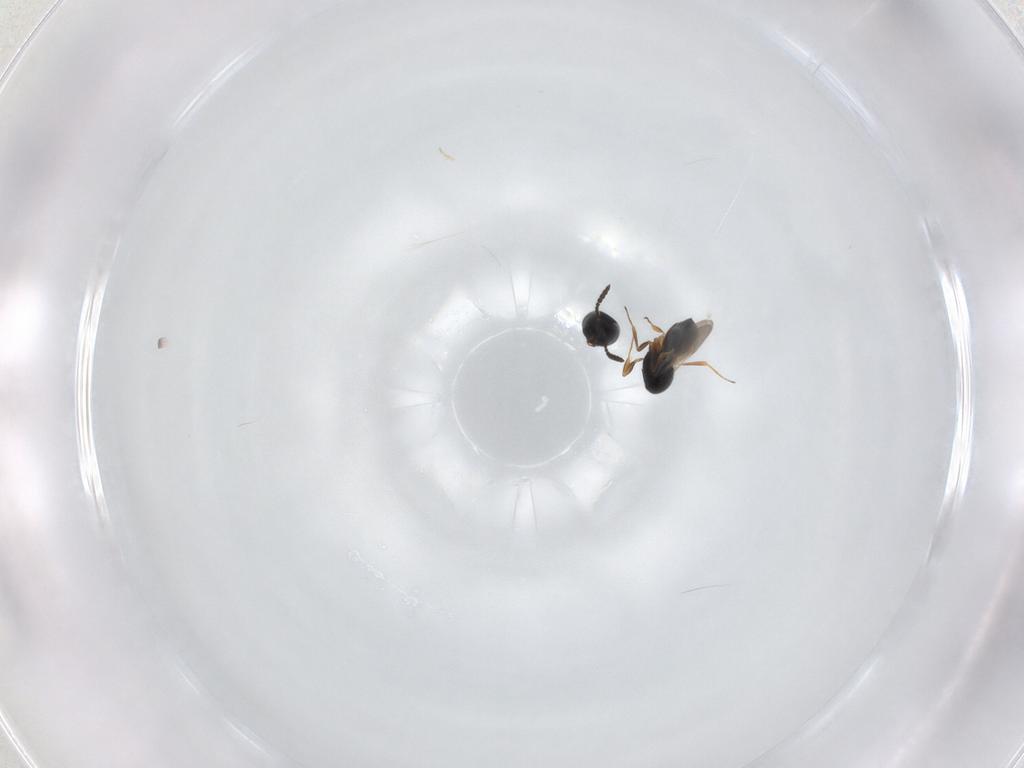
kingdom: Animalia
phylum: Arthropoda
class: Insecta
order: Hymenoptera
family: Scelionidae
